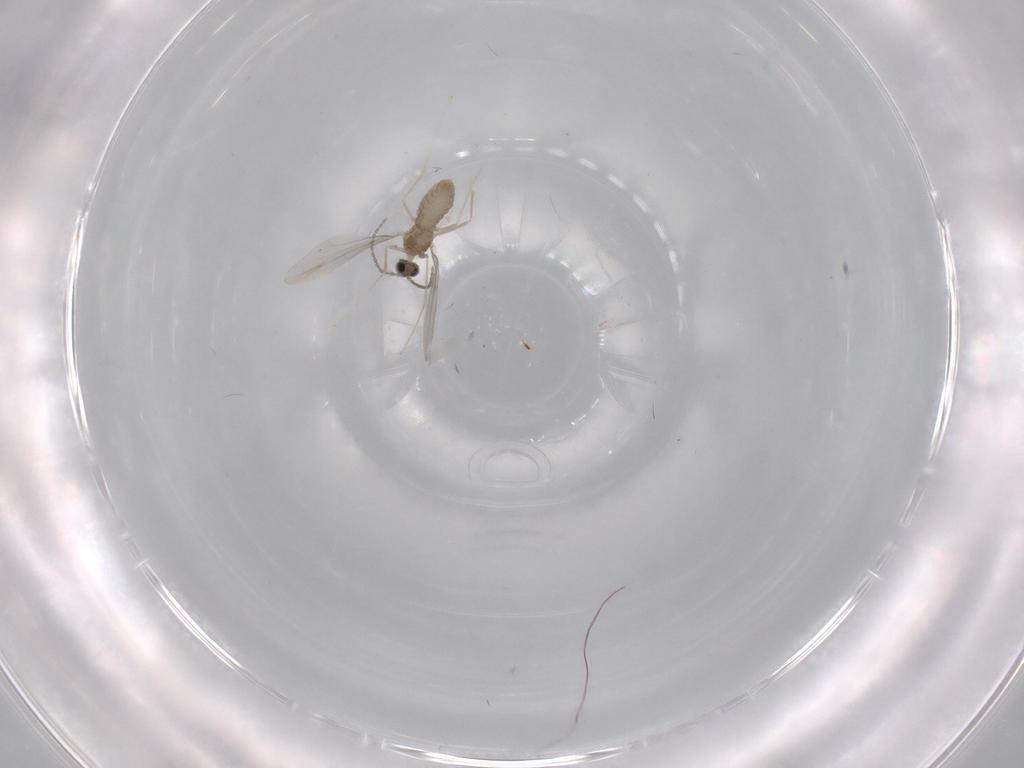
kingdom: Animalia
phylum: Arthropoda
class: Insecta
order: Diptera
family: Cecidomyiidae
